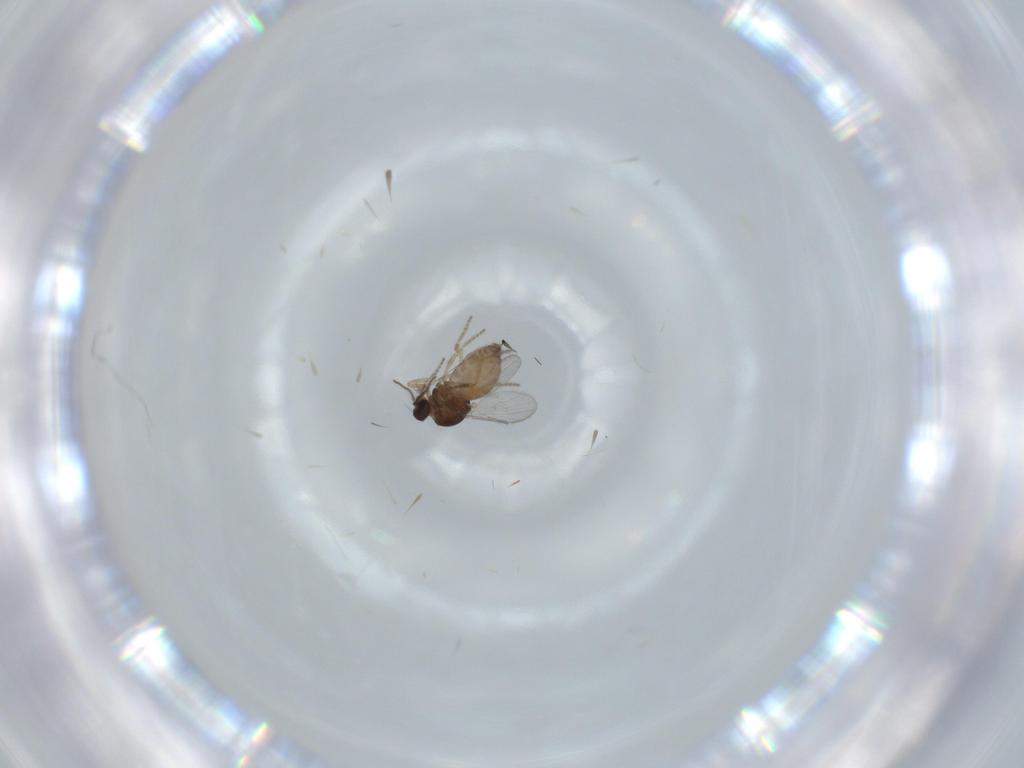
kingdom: Animalia
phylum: Arthropoda
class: Insecta
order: Diptera
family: Ceratopogonidae
